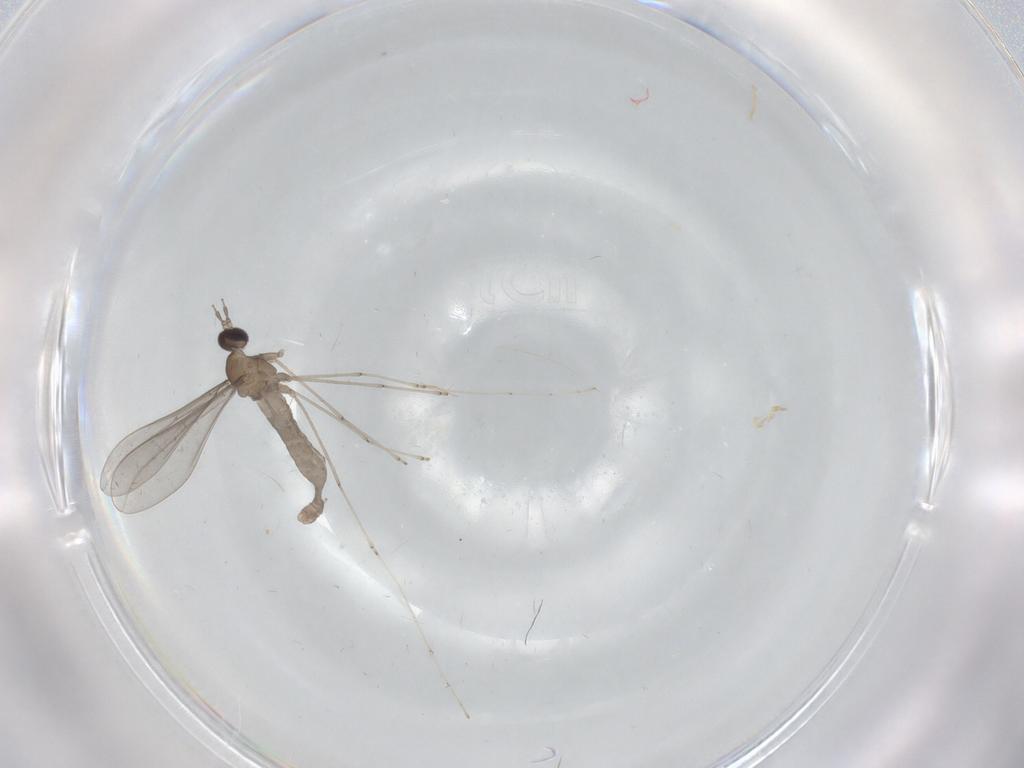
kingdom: Animalia
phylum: Arthropoda
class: Insecta
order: Diptera
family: Cecidomyiidae
